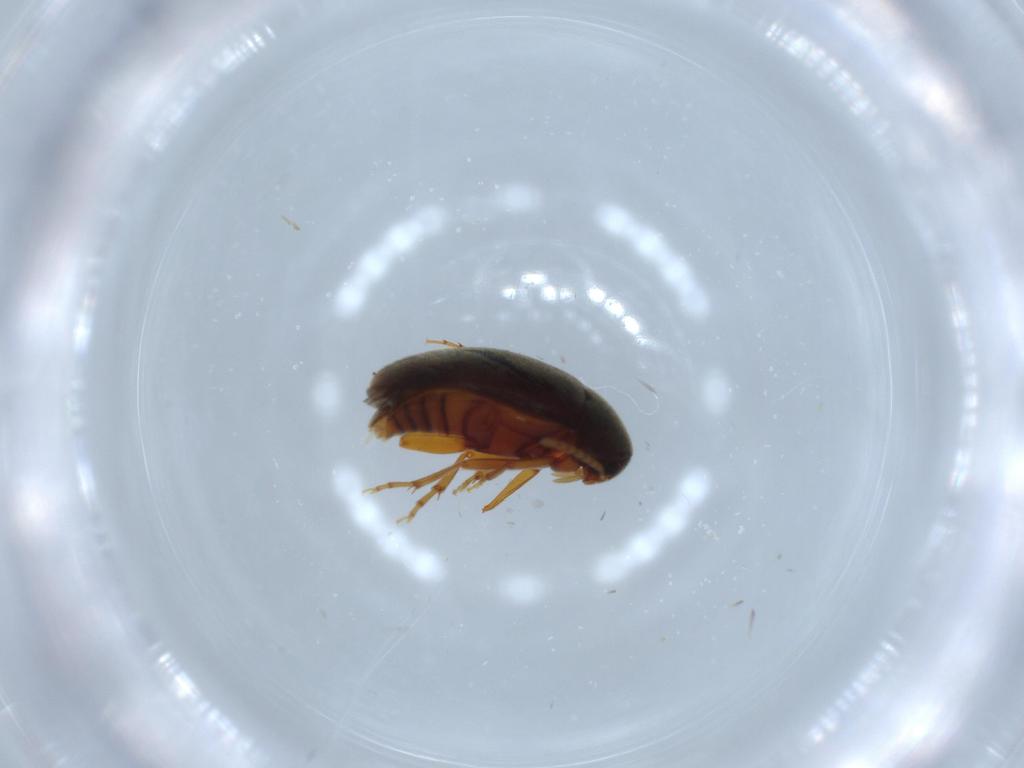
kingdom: Animalia
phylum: Arthropoda
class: Insecta
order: Coleoptera
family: Scraptiidae
